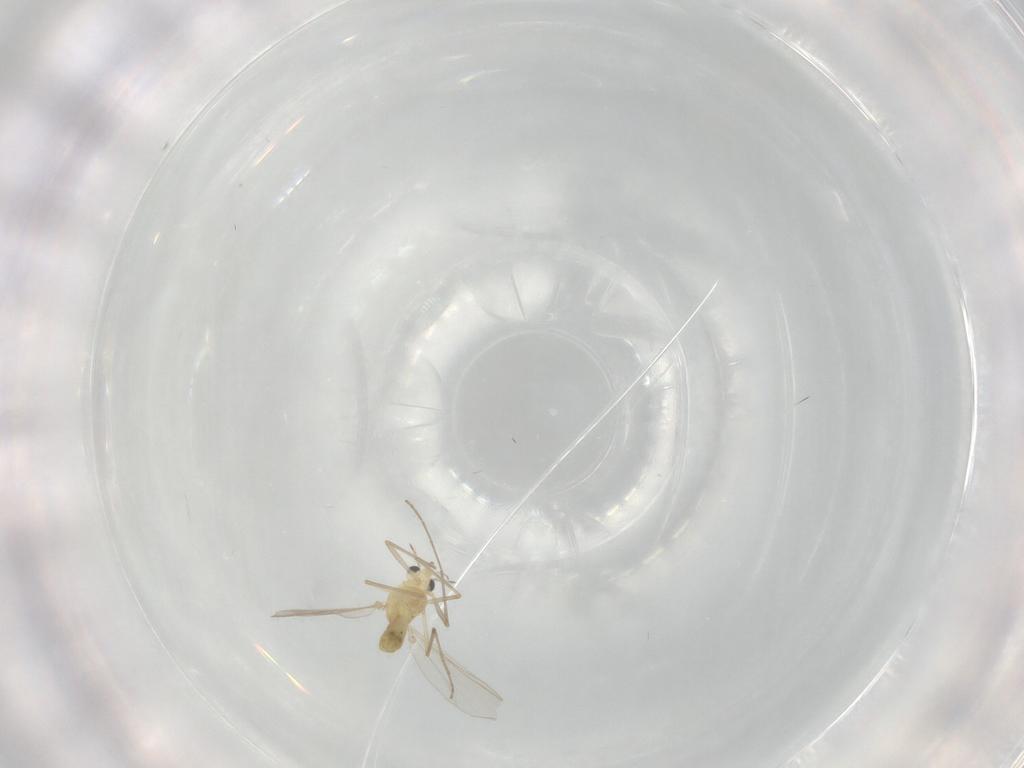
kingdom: Animalia
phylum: Arthropoda
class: Insecta
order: Diptera
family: Chironomidae
